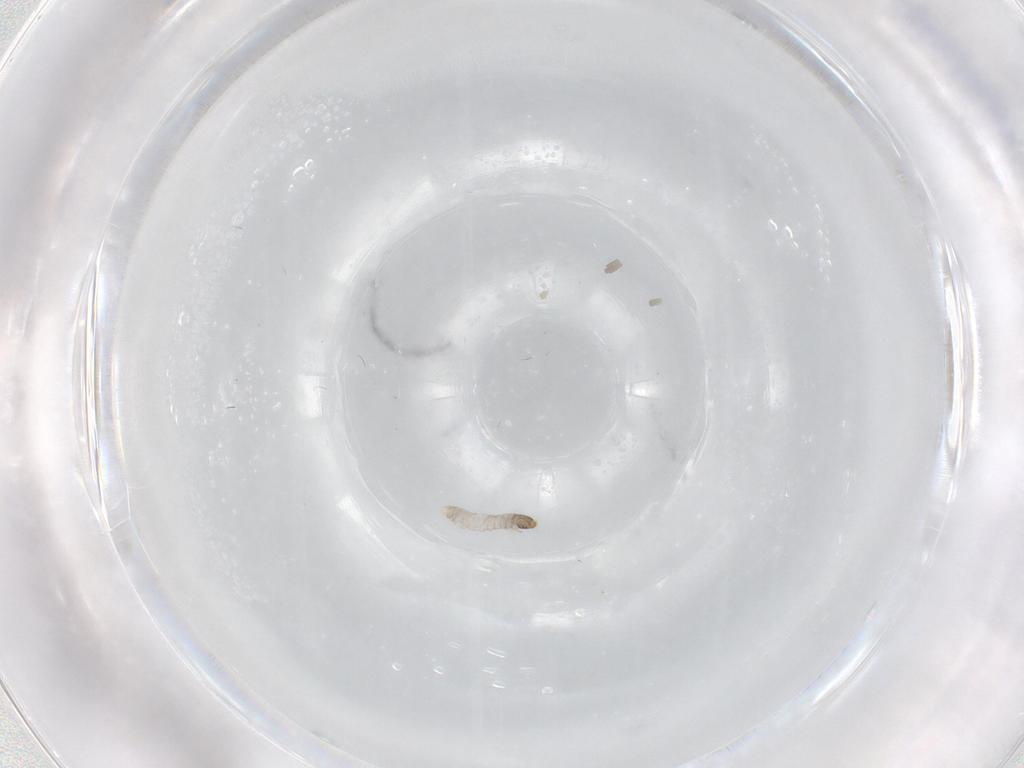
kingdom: Animalia
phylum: Arthropoda
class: Insecta
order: Lepidoptera
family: Tineidae
